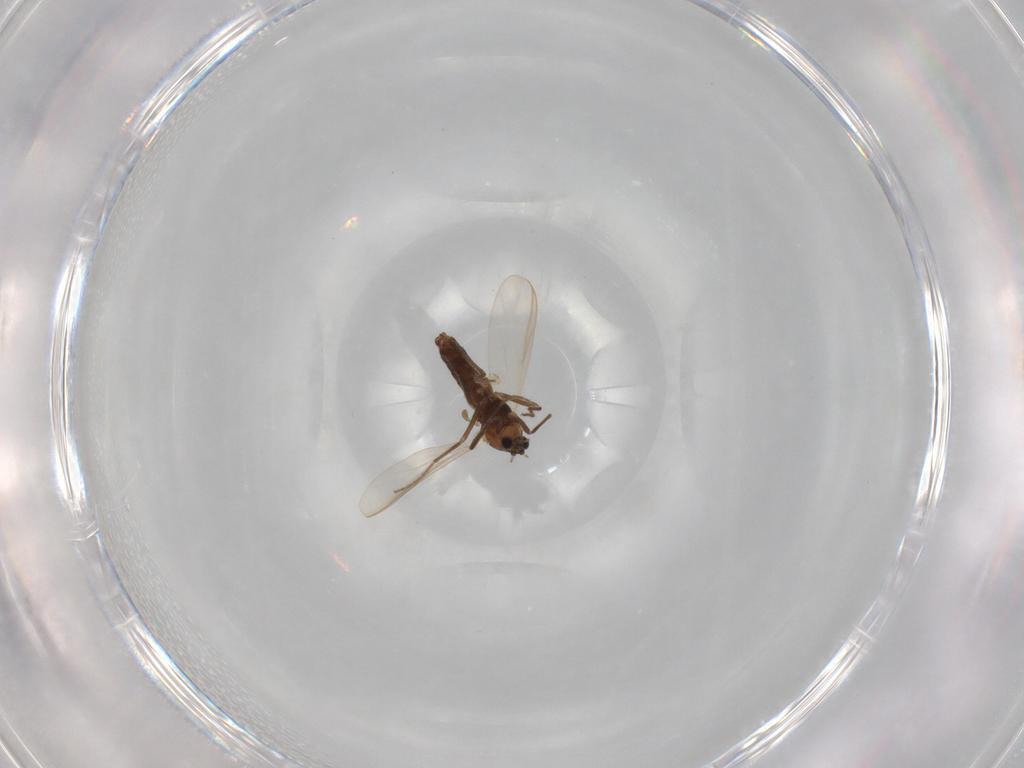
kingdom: Animalia
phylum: Arthropoda
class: Insecta
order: Diptera
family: Chironomidae
